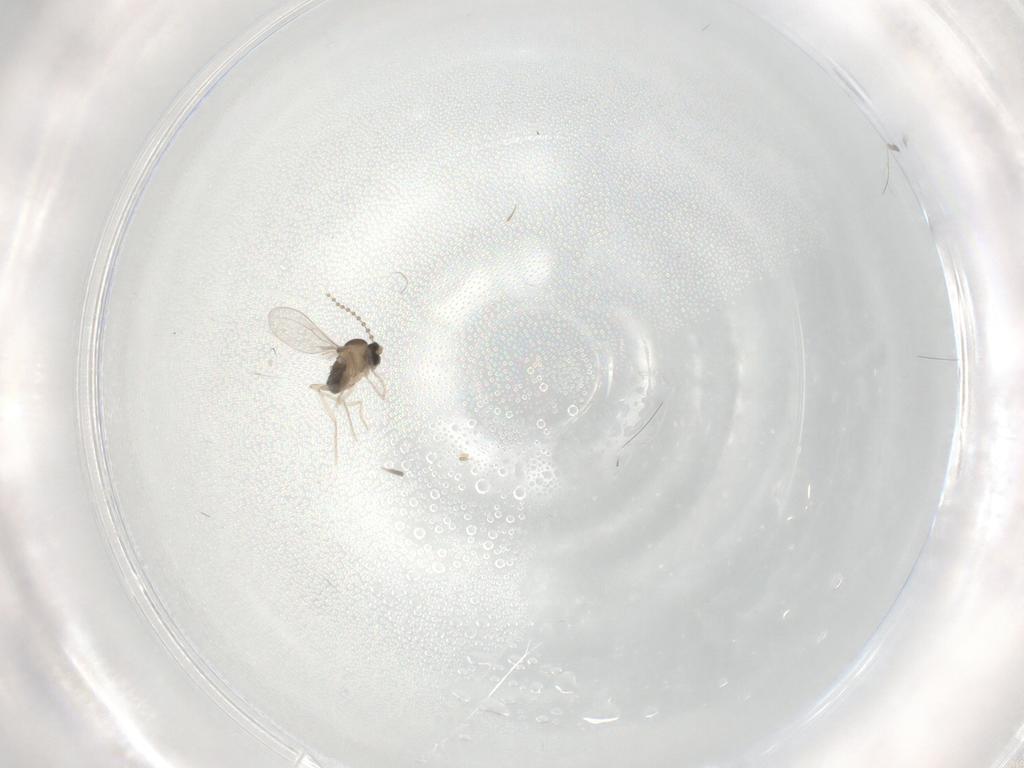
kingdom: Animalia
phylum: Arthropoda
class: Insecta
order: Diptera
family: Cecidomyiidae
